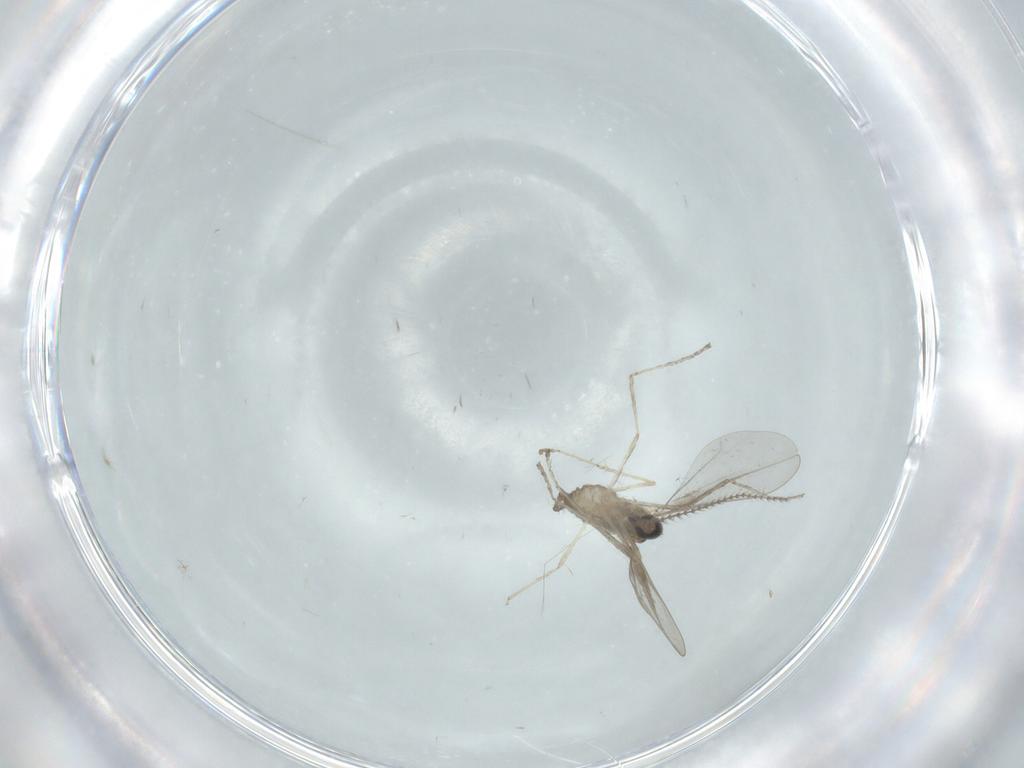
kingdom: Animalia
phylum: Arthropoda
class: Insecta
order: Diptera
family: Cecidomyiidae
